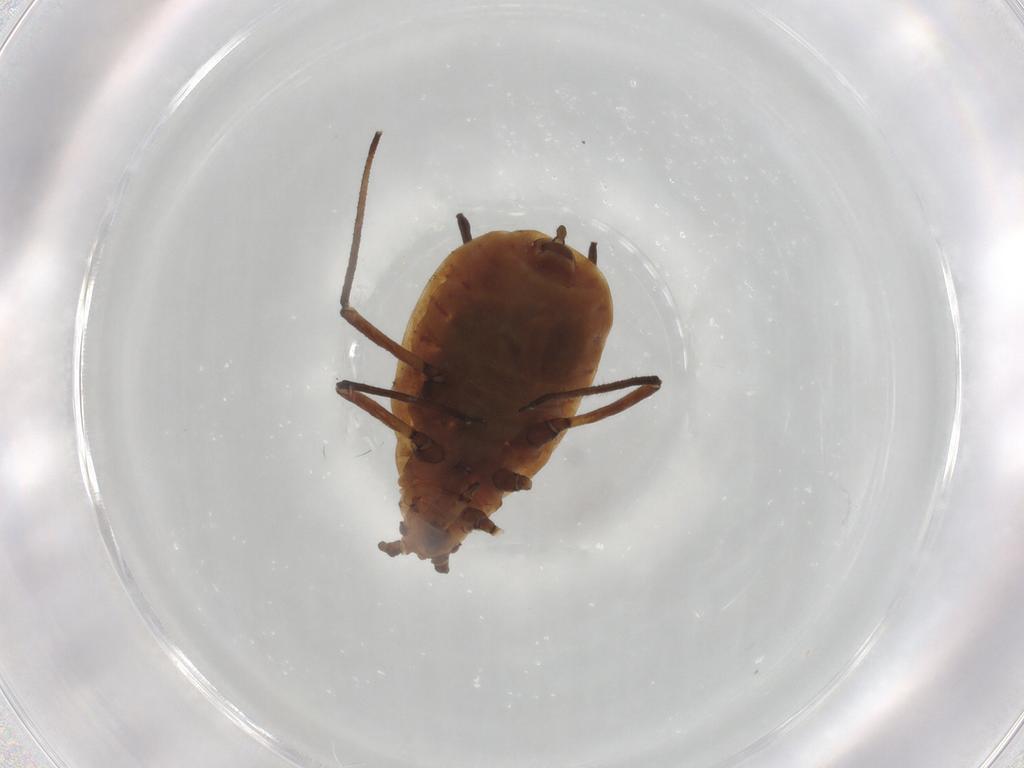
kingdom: Animalia
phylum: Arthropoda
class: Insecta
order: Hemiptera
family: Aphididae
